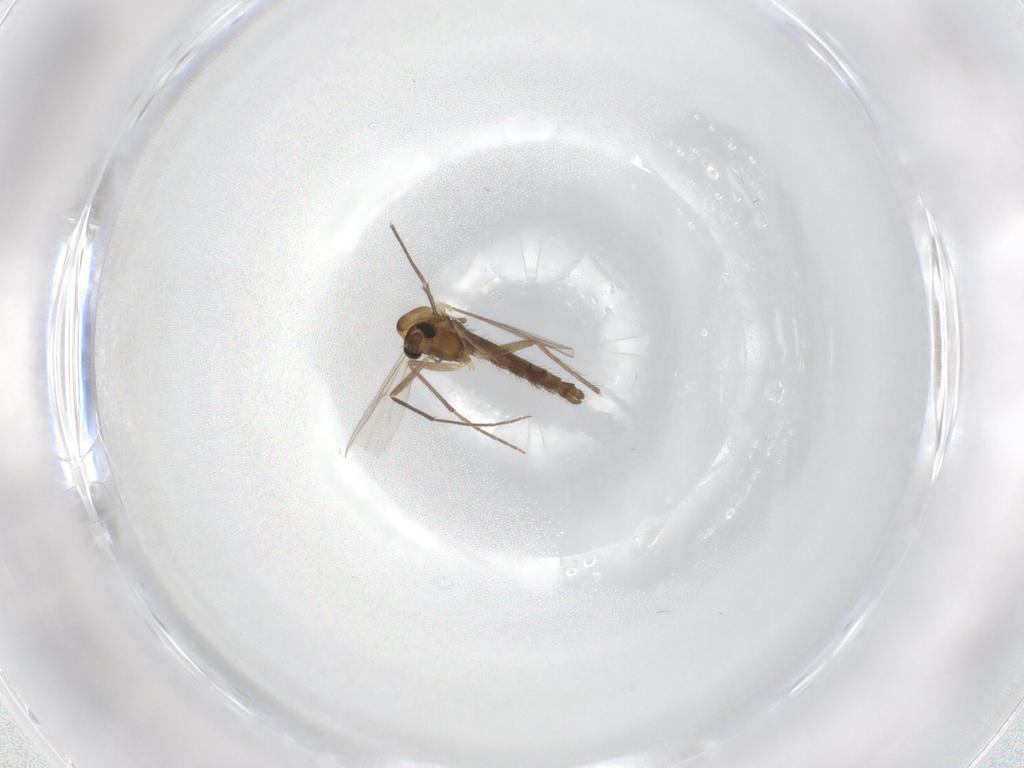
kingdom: Animalia
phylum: Arthropoda
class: Insecta
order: Diptera
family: Chironomidae
